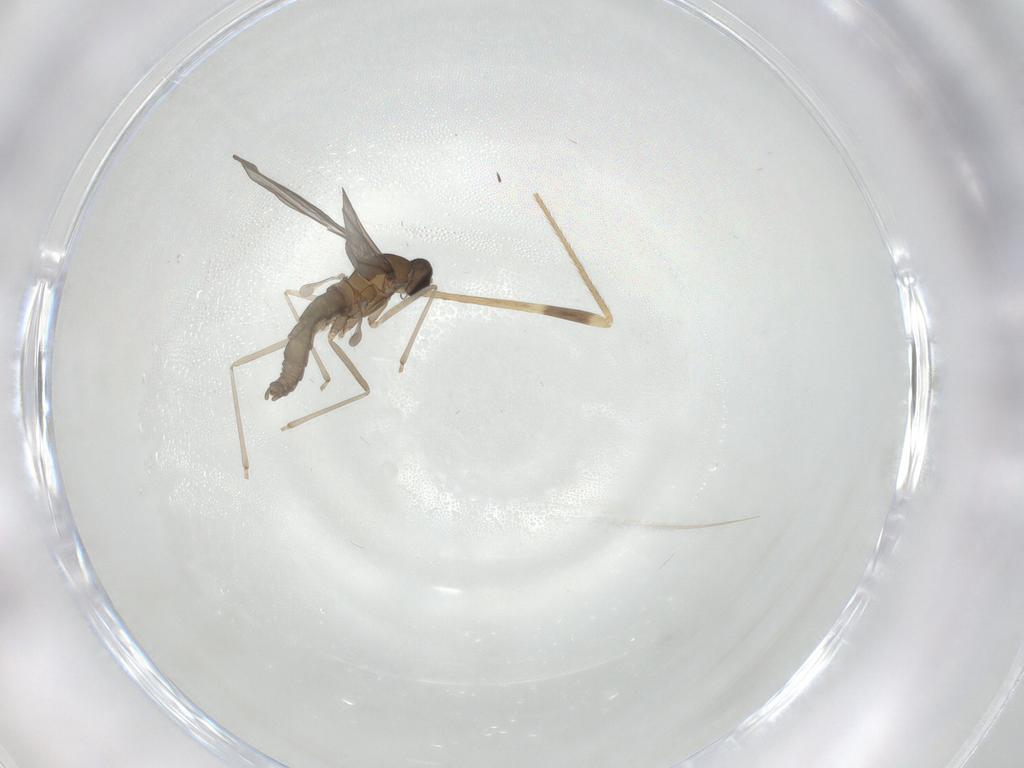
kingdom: Animalia
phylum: Arthropoda
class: Insecta
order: Diptera
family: Cecidomyiidae
